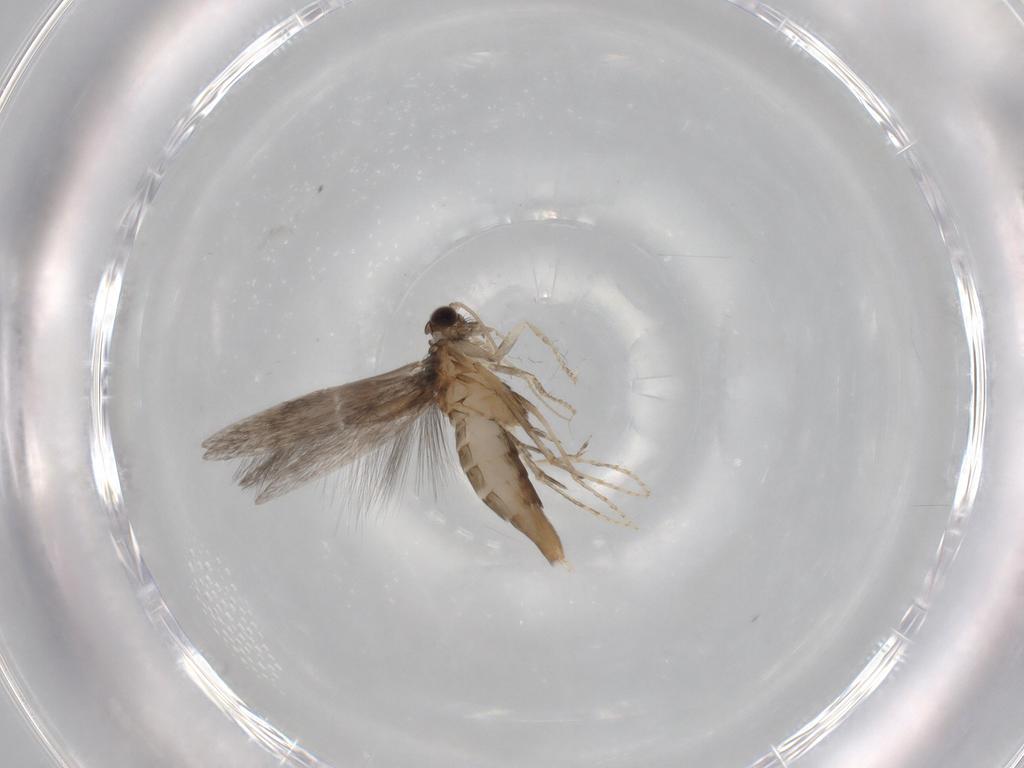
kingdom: Animalia
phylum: Arthropoda
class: Insecta
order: Trichoptera
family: Hydroptilidae
